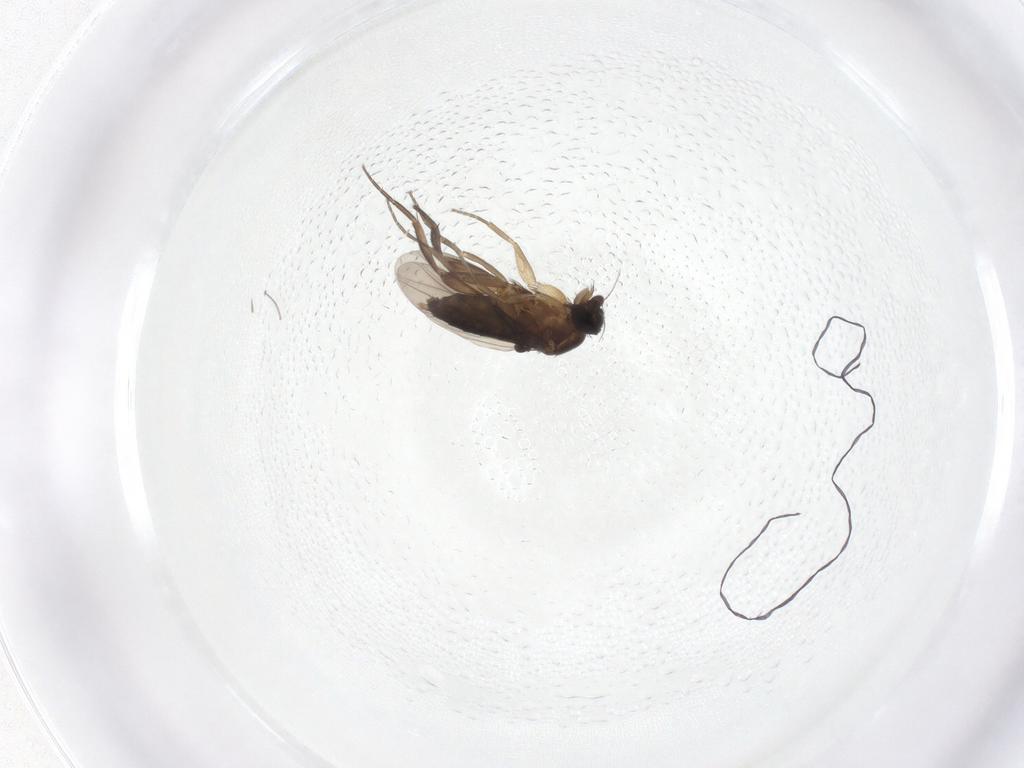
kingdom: Animalia
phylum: Arthropoda
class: Insecta
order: Diptera
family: Phoridae
